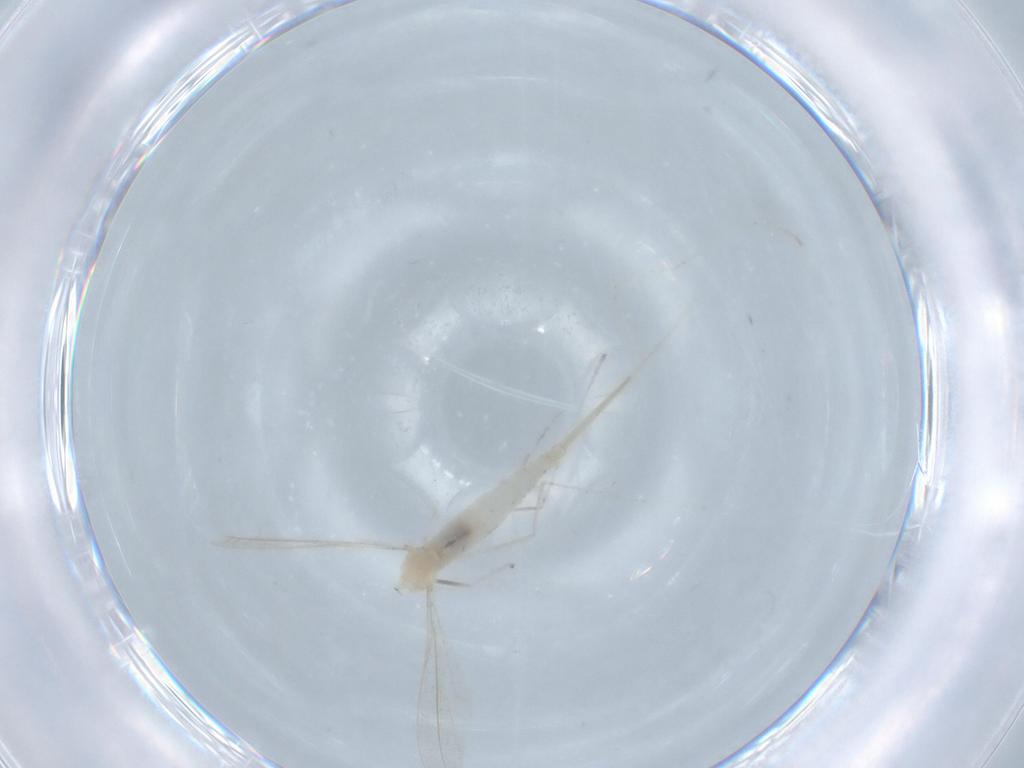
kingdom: Animalia
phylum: Arthropoda
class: Insecta
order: Diptera
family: Cecidomyiidae
